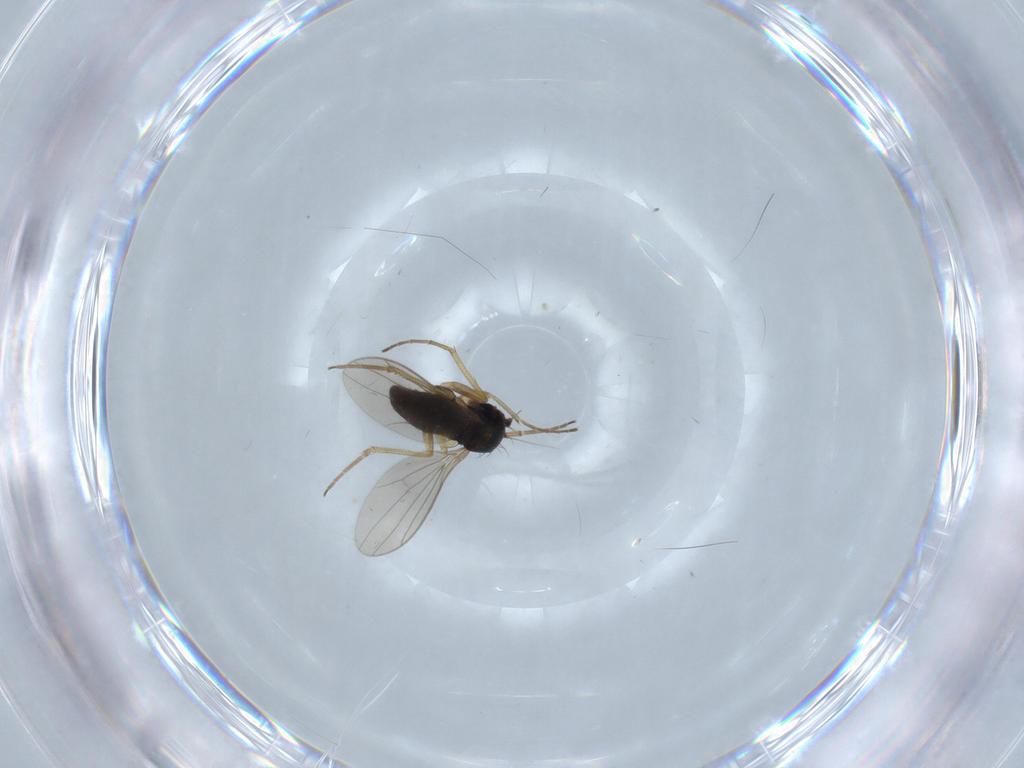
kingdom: Animalia
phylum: Arthropoda
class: Insecta
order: Diptera
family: Dolichopodidae
